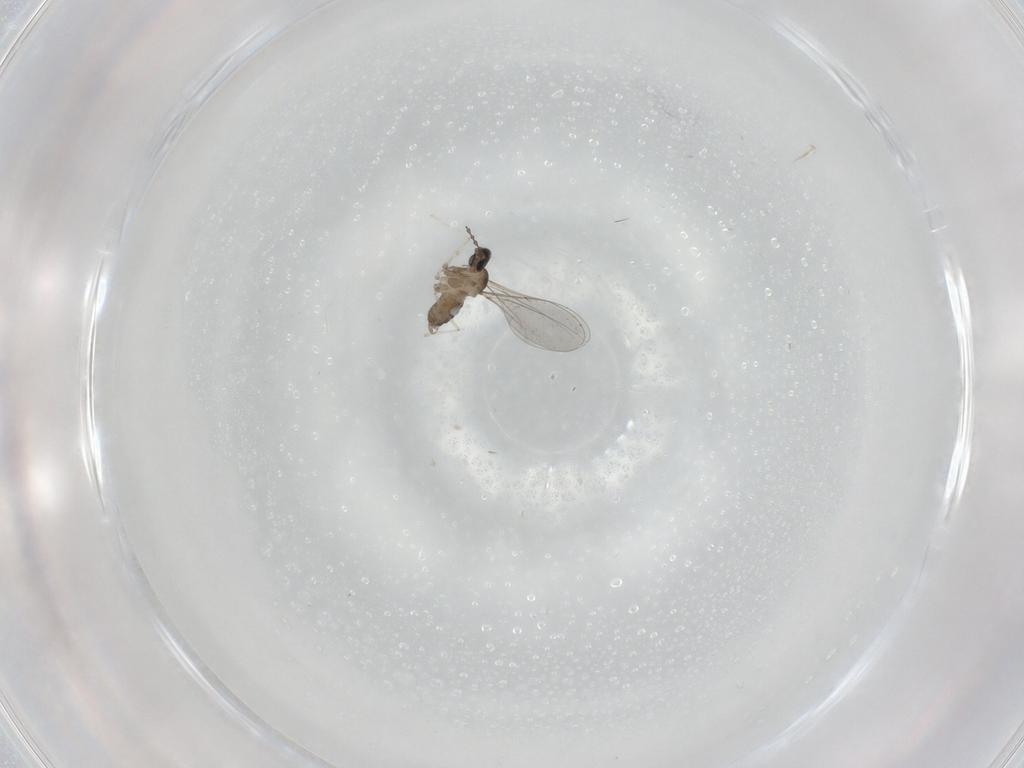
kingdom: Animalia
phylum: Arthropoda
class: Insecta
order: Diptera
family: Cecidomyiidae
